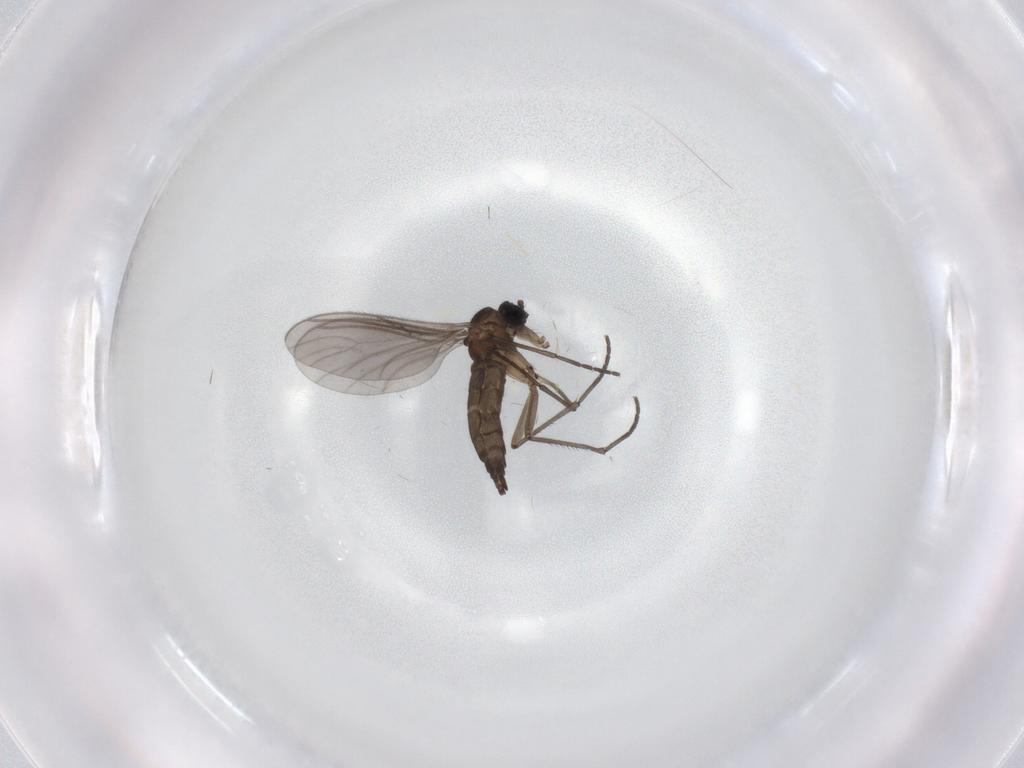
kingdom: Animalia
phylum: Arthropoda
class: Insecta
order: Diptera
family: Sciaridae
